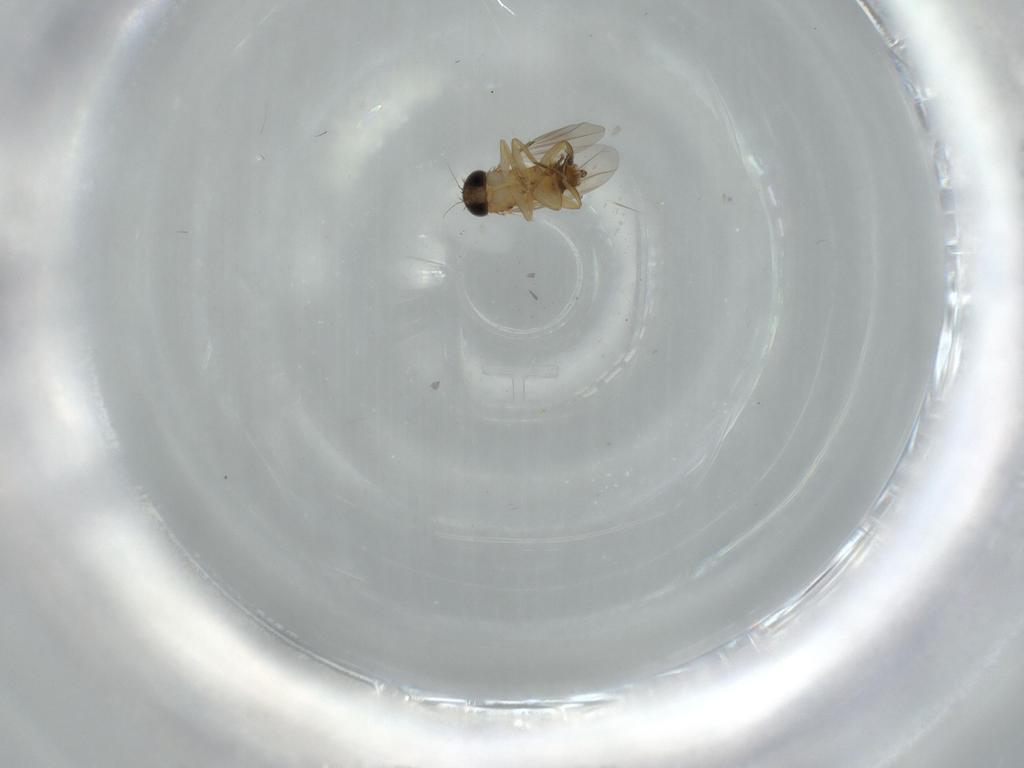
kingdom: Animalia
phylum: Arthropoda
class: Insecta
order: Diptera
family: Phoridae
